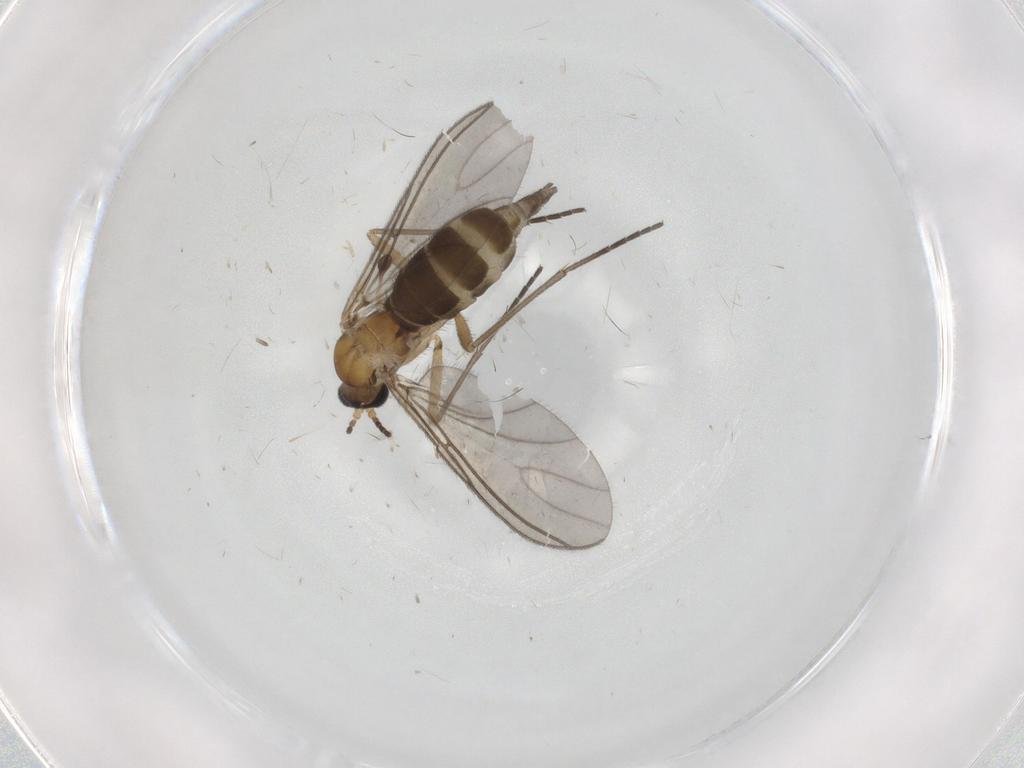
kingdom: Animalia
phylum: Arthropoda
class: Insecta
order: Diptera
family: Sciaridae
